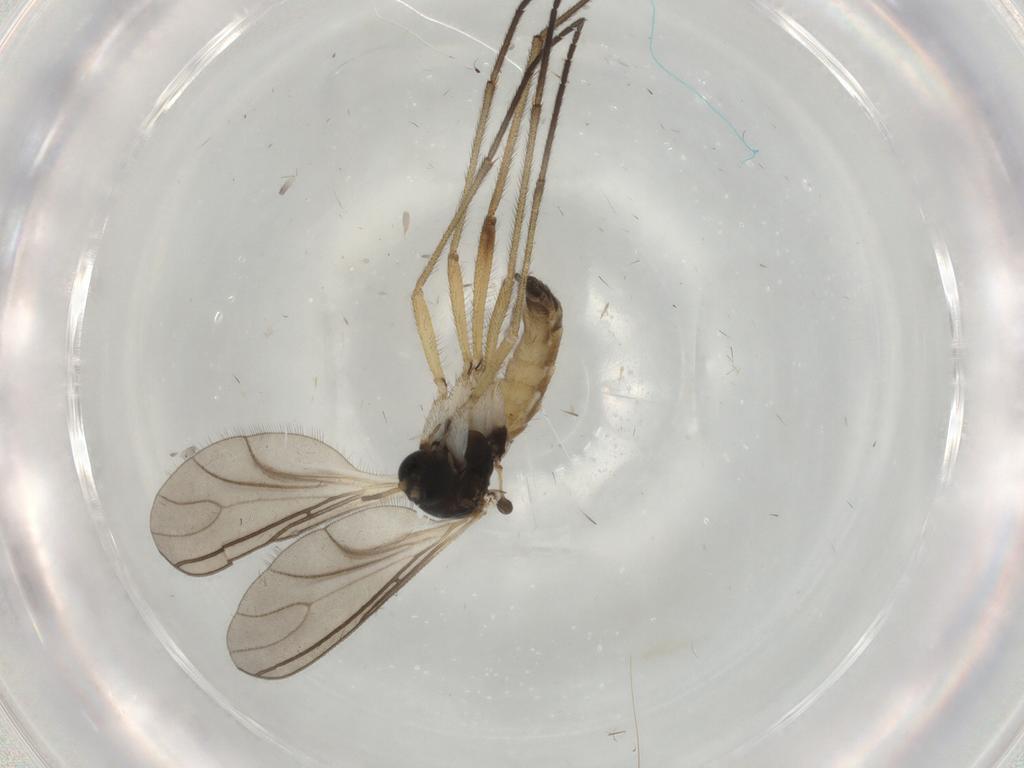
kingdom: Animalia
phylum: Arthropoda
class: Insecta
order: Diptera
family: Sciaridae
